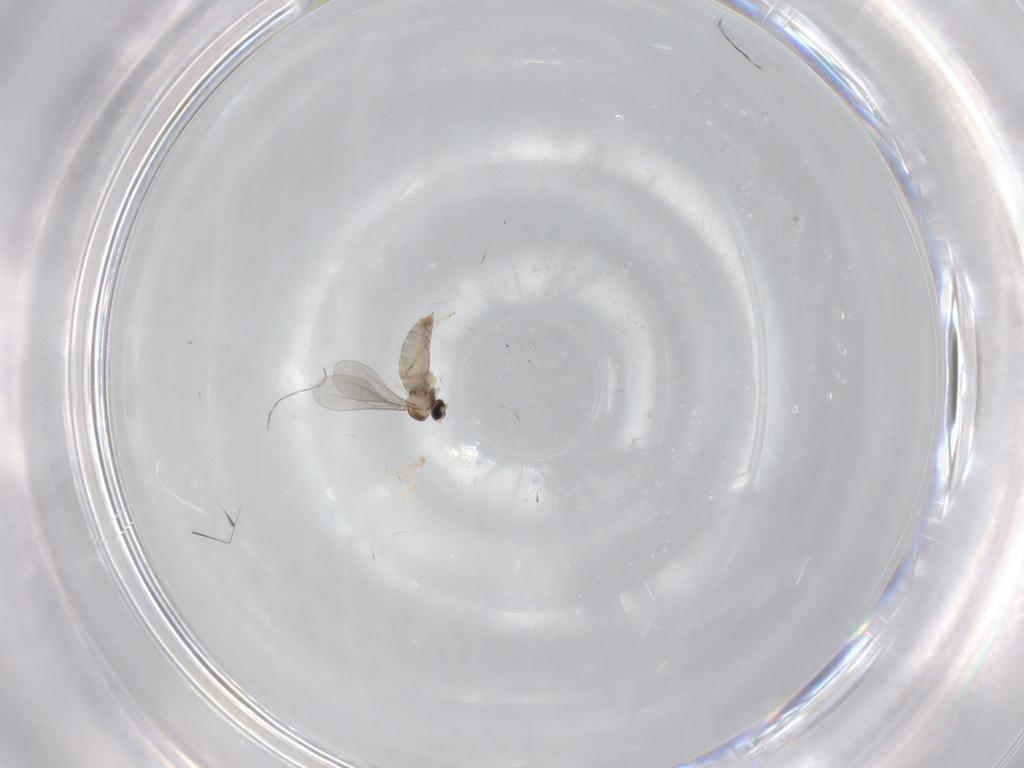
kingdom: Animalia
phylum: Arthropoda
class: Insecta
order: Diptera
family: Cecidomyiidae
